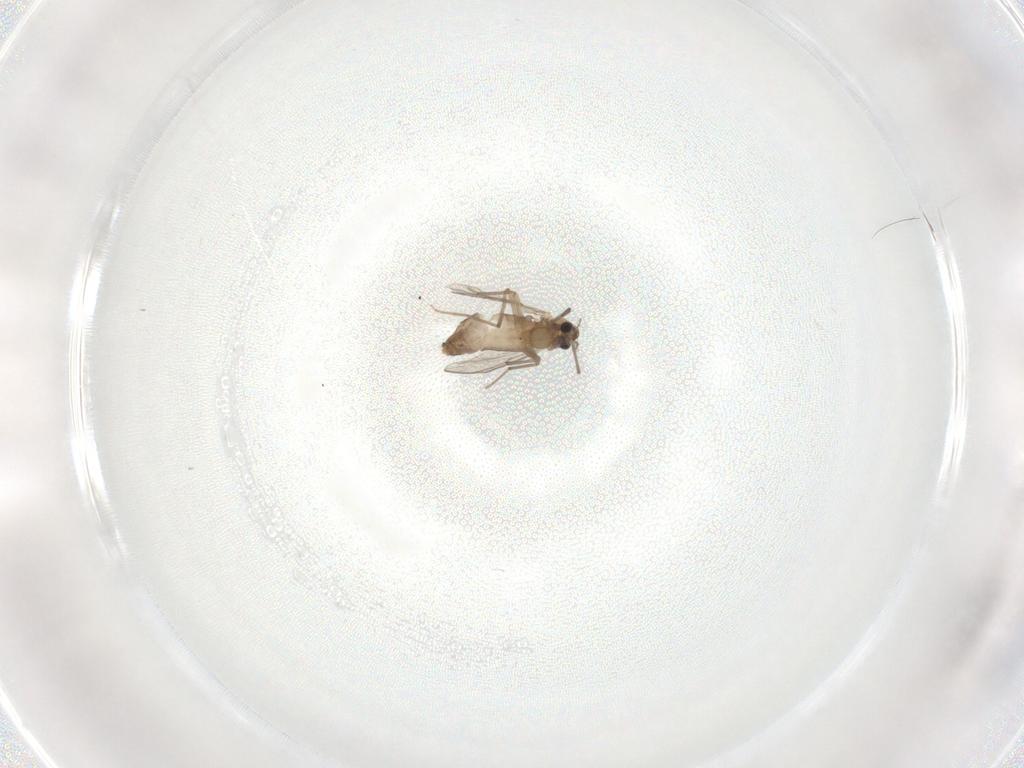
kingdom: Animalia
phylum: Arthropoda
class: Insecta
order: Diptera
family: Chironomidae
